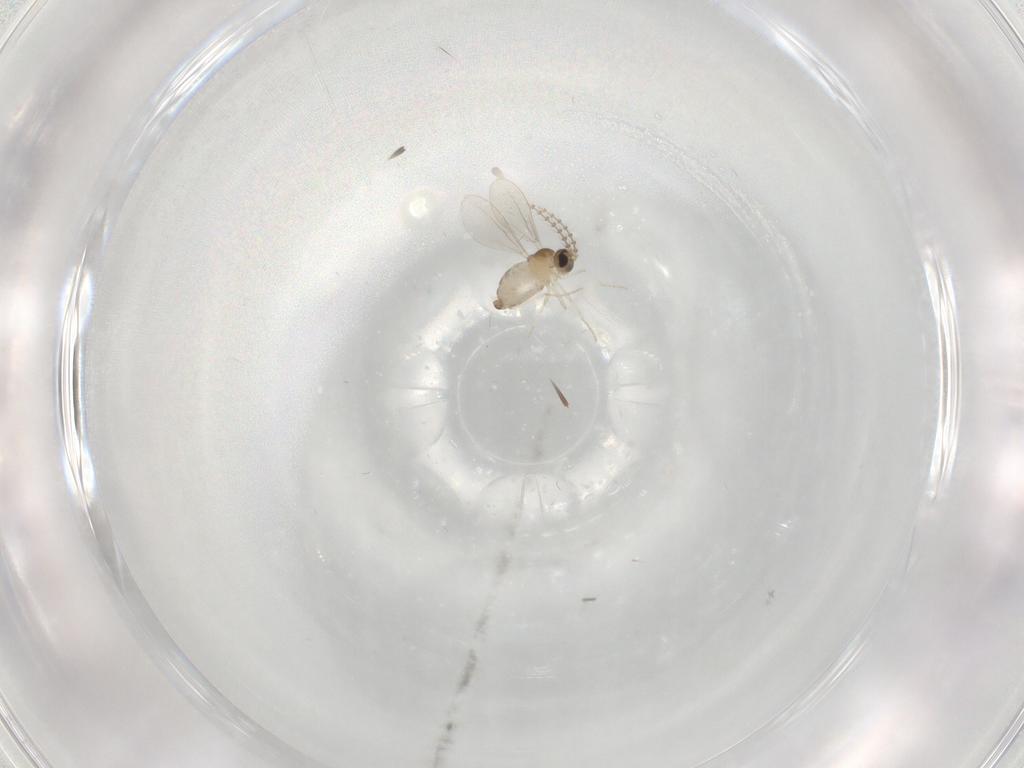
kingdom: Animalia
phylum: Arthropoda
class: Insecta
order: Diptera
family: Cecidomyiidae
